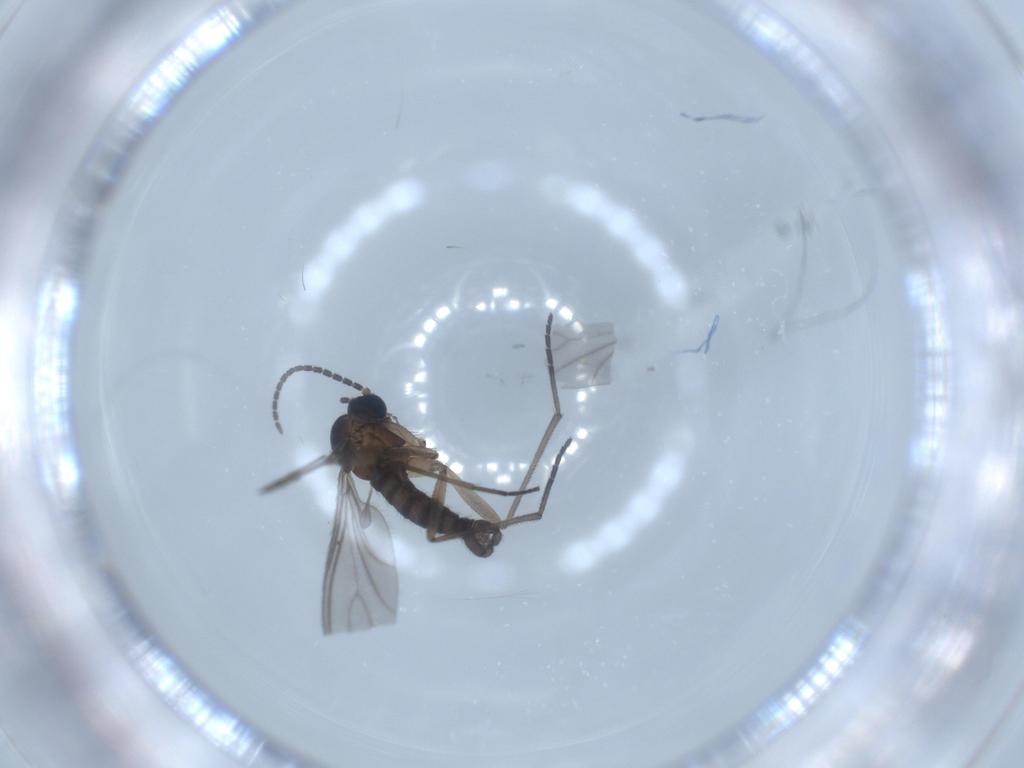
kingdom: Animalia
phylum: Arthropoda
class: Insecta
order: Diptera
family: Sciaridae
